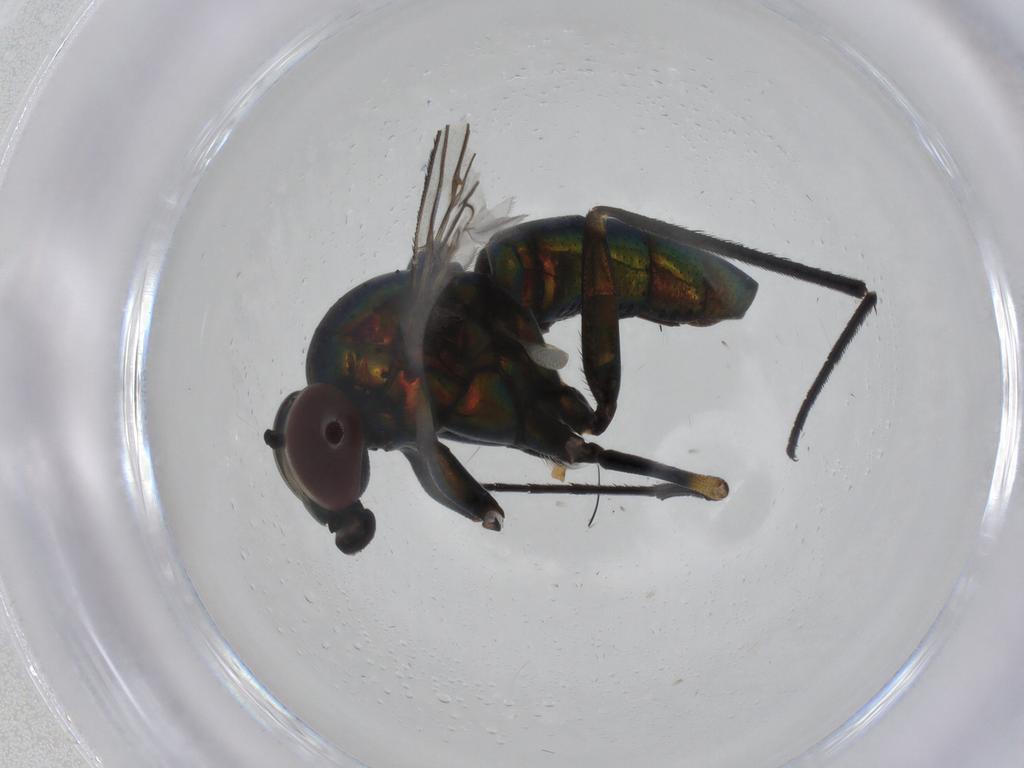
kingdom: Animalia
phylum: Arthropoda
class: Insecta
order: Diptera
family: Dolichopodidae
